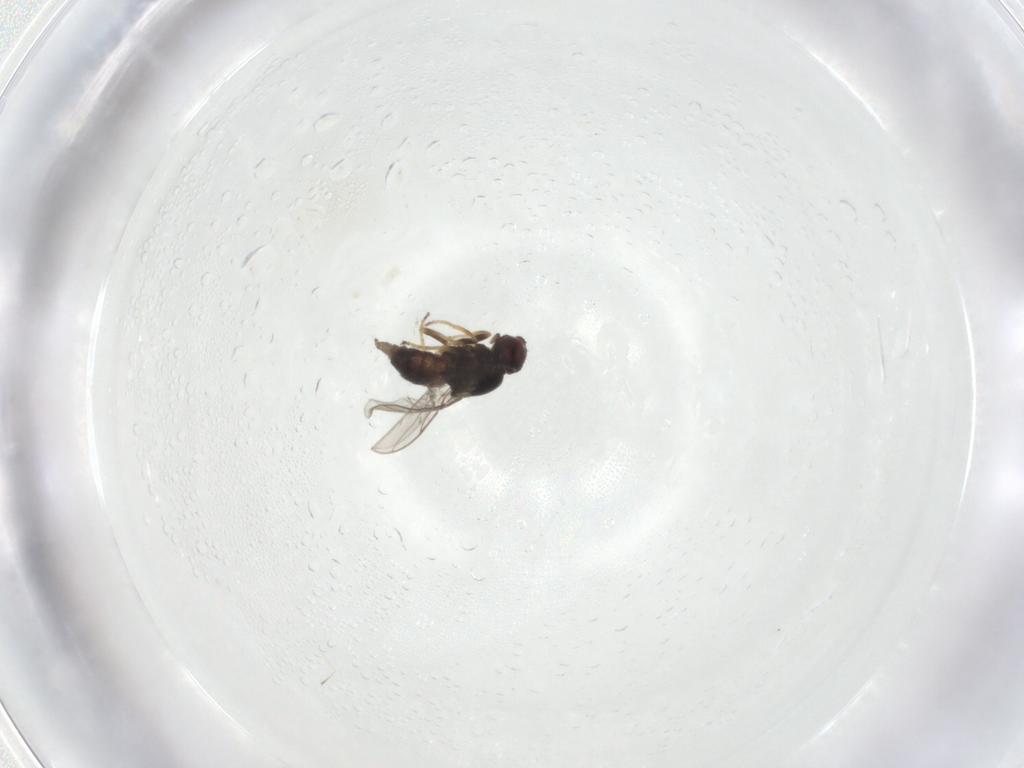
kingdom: Animalia
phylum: Arthropoda
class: Insecta
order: Diptera
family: Chloropidae
